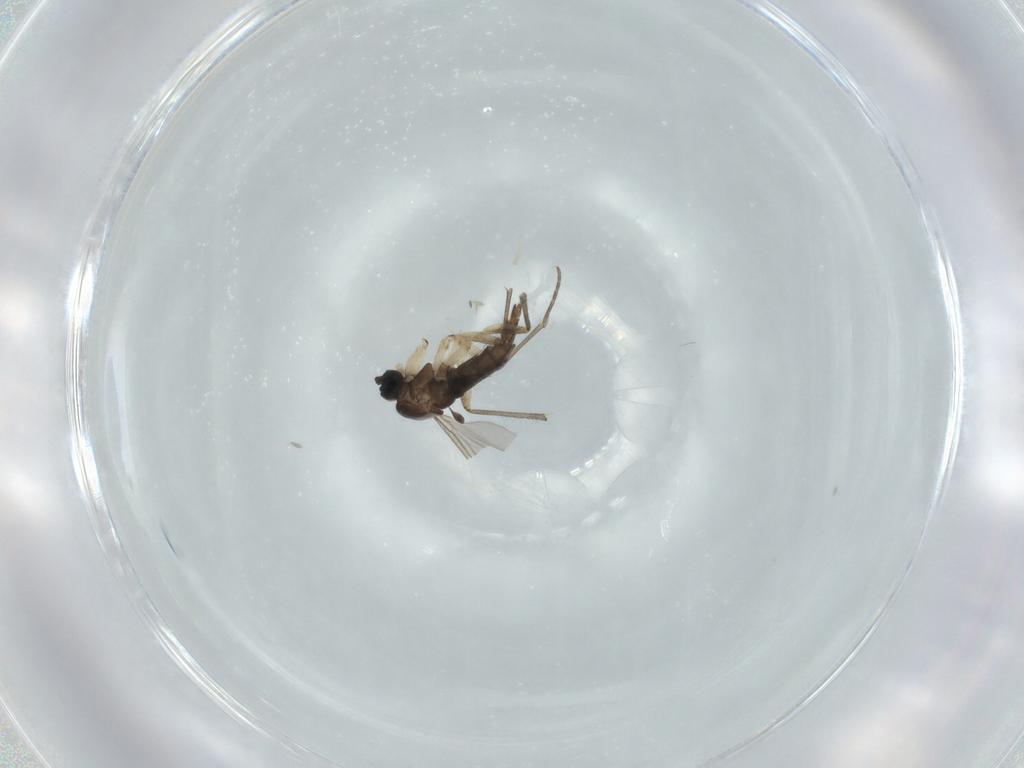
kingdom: Animalia
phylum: Arthropoda
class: Insecta
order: Diptera
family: Sciaridae
